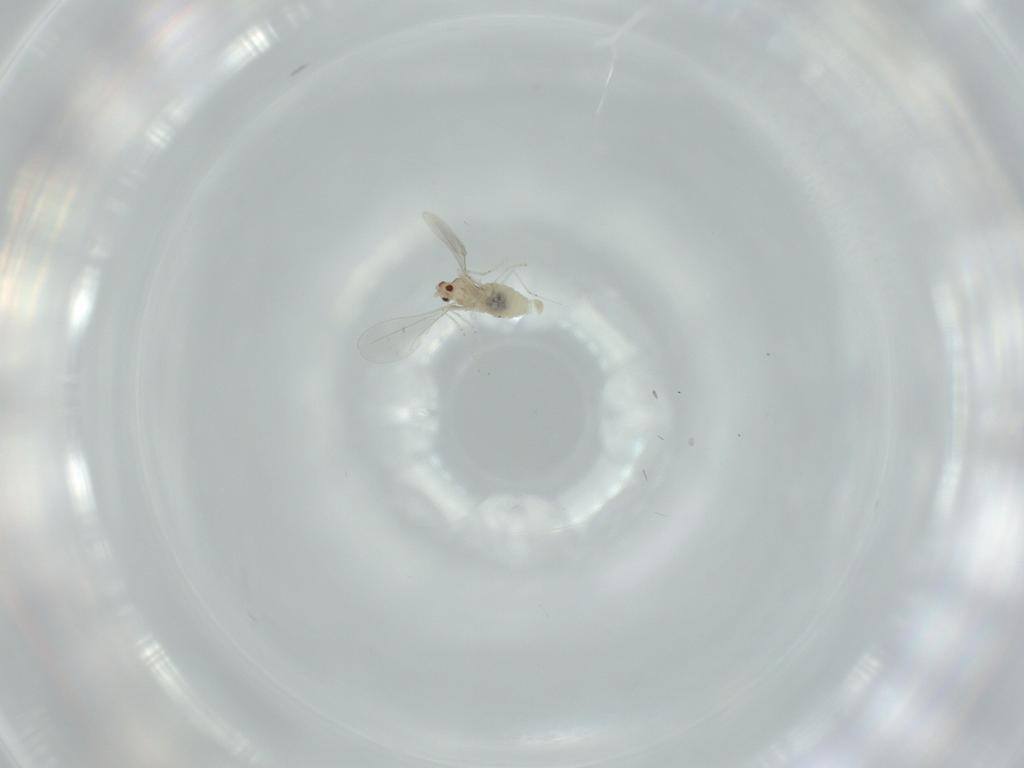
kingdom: Animalia
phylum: Arthropoda
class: Insecta
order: Diptera
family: Cecidomyiidae
